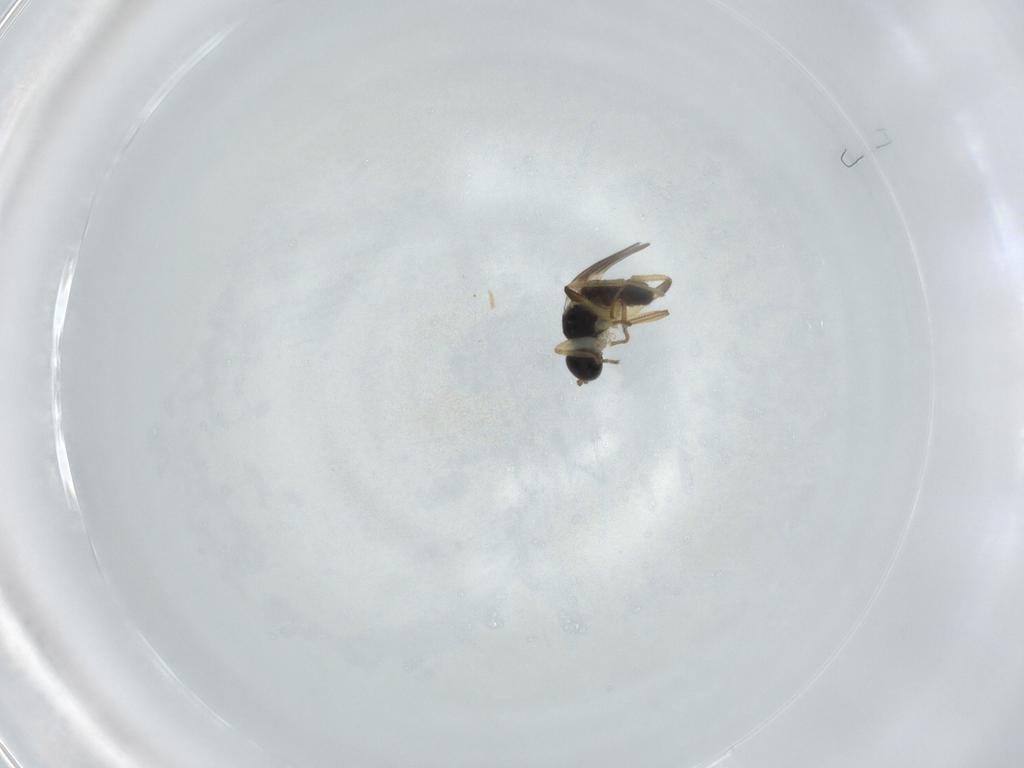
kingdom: Animalia
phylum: Arthropoda
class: Insecta
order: Diptera
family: Hybotidae
